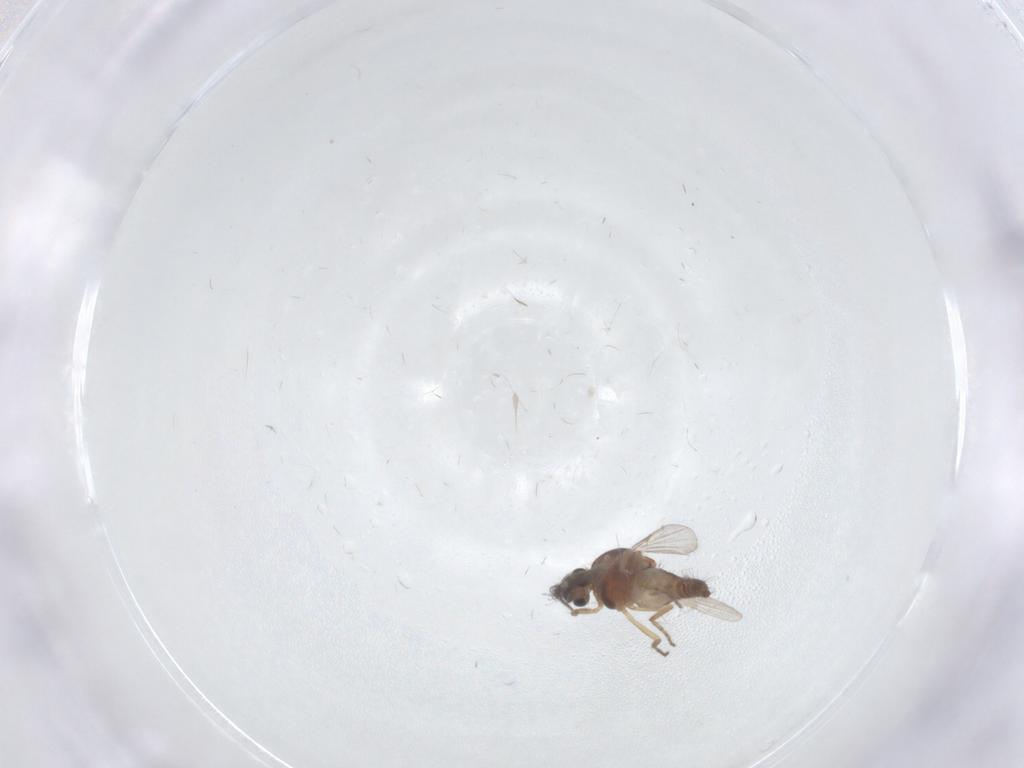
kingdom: Animalia
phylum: Arthropoda
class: Insecta
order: Diptera
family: Ceratopogonidae
